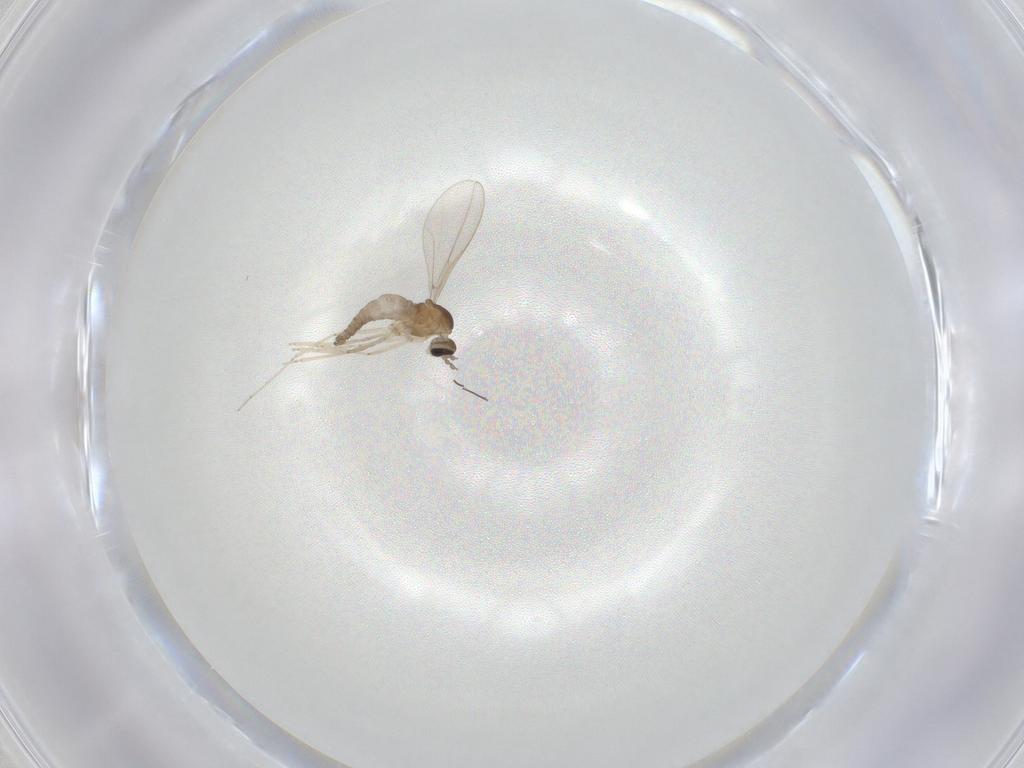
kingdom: Animalia
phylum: Arthropoda
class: Insecta
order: Diptera
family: Cecidomyiidae
